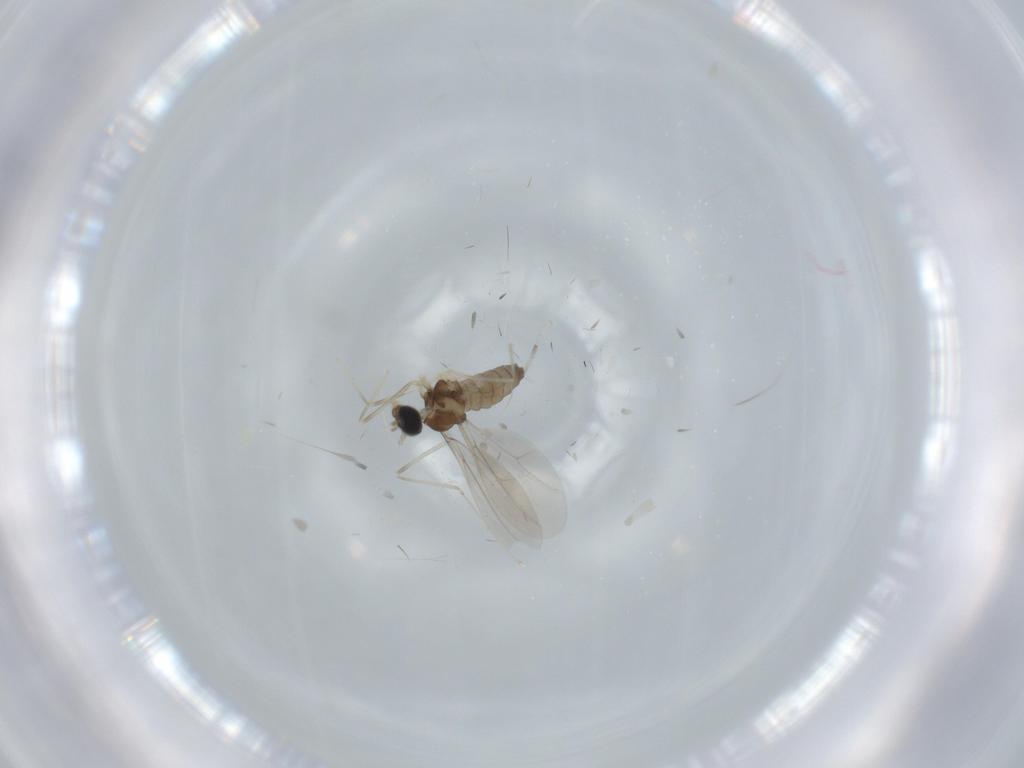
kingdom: Animalia
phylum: Arthropoda
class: Insecta
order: Diptera
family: Cecidomyiidae
